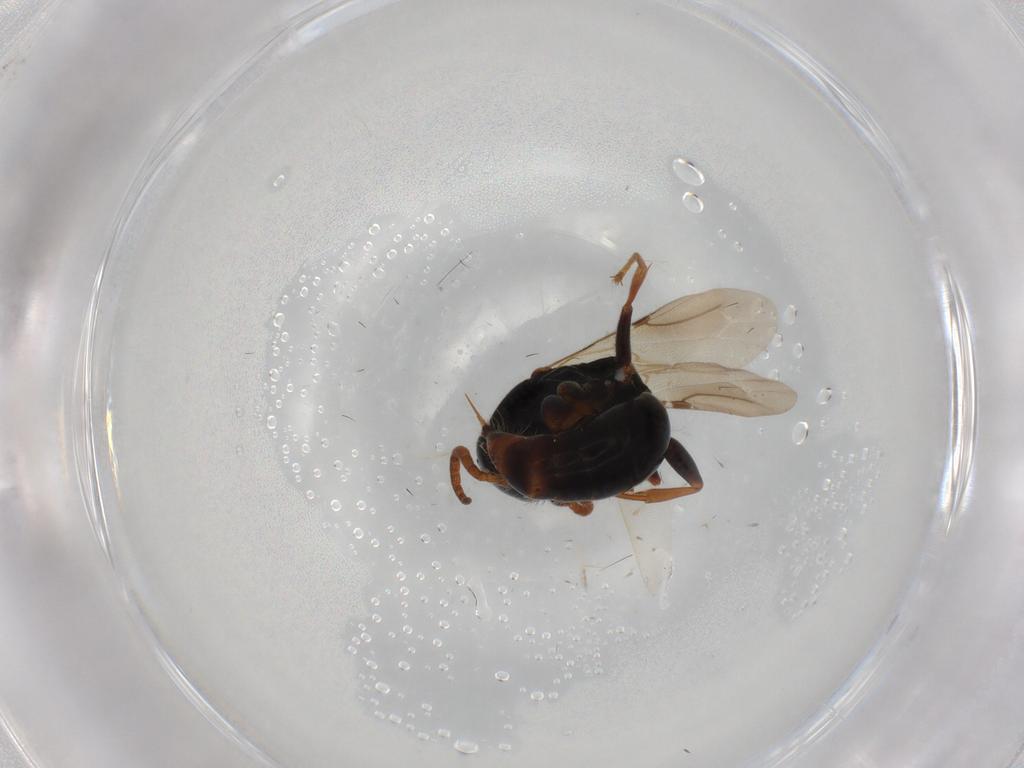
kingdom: Animalia
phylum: Arthropoda
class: Insecta
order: Hymenoptera
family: Bethylidae
